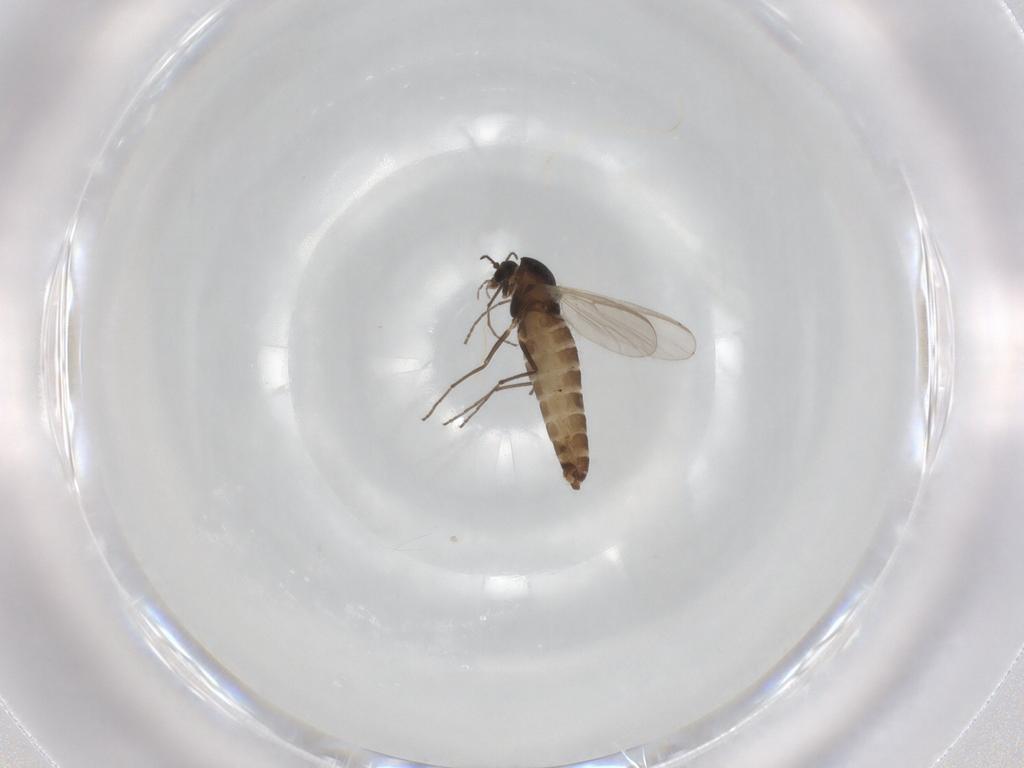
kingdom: Animalia
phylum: Arthropoda
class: Insecta
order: Diptera
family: Chironomidae
